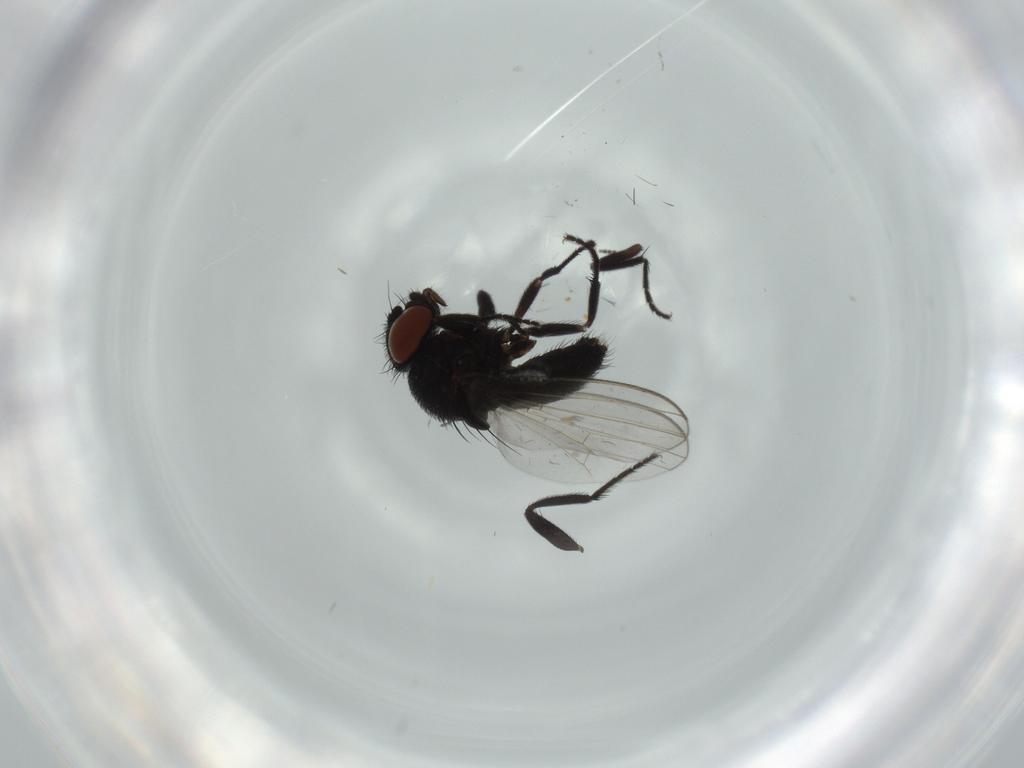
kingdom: Animalia
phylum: Arthropoda
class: Insecta
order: Diptera
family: Sciaridae
